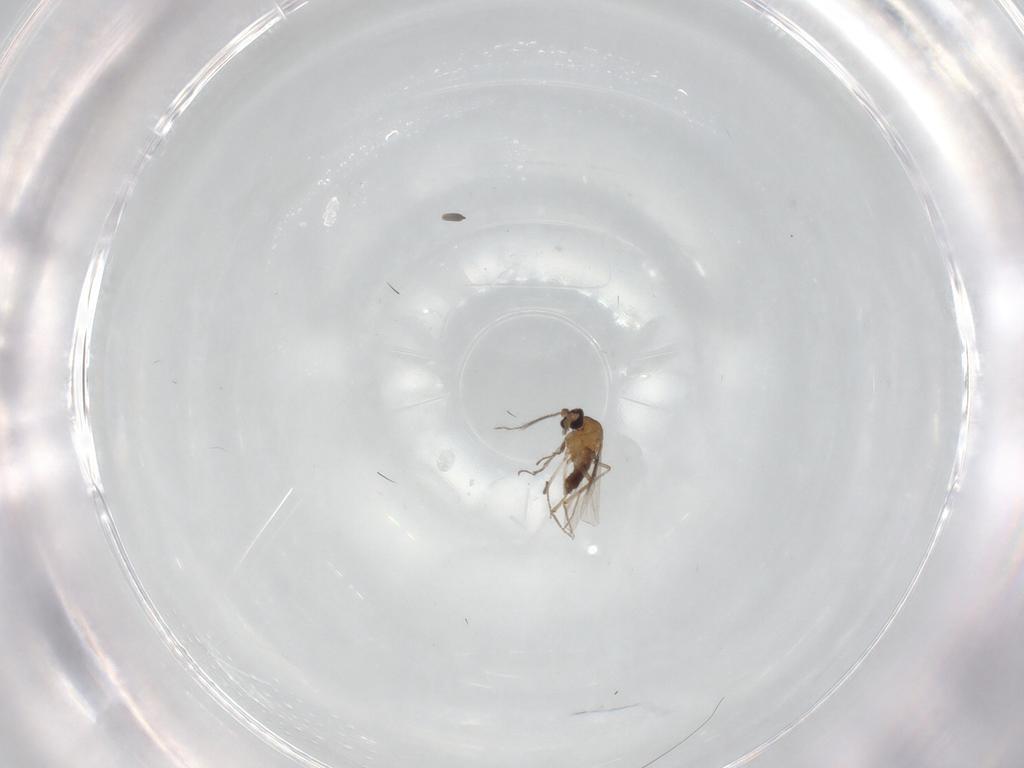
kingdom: Animalia
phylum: Arthropoda
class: Insecta
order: Diptera
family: Ceratopogonidae
